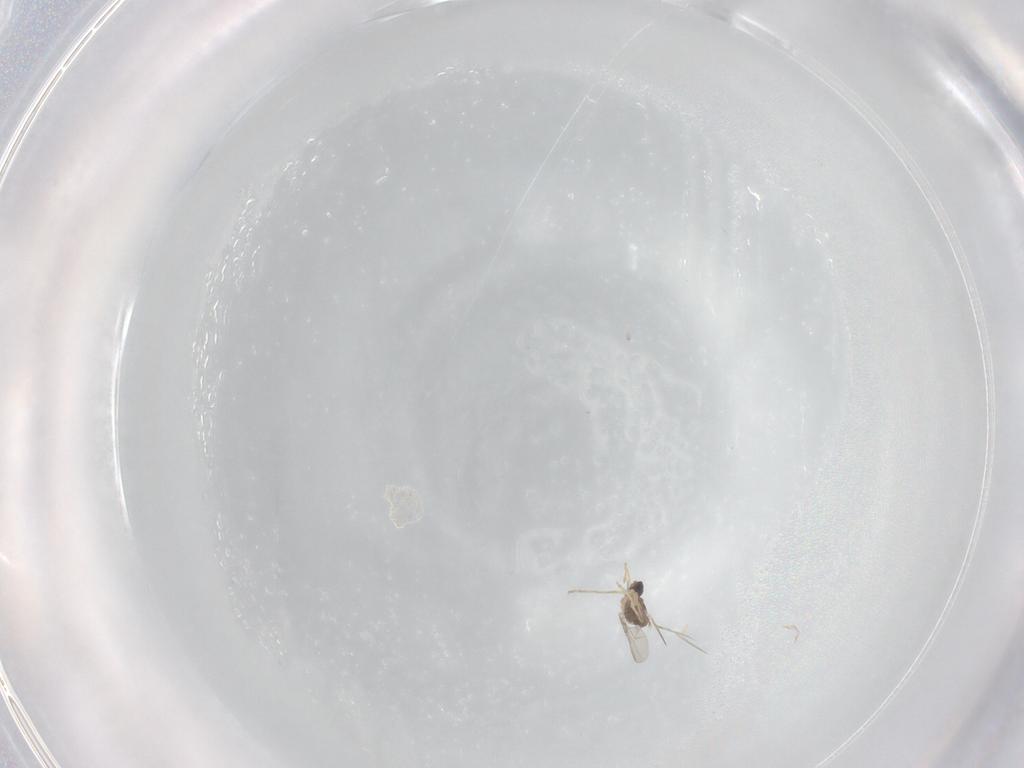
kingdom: Animalia
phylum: Arthropoda
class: Insecta
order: Diptera
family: Cecidomyiidae
